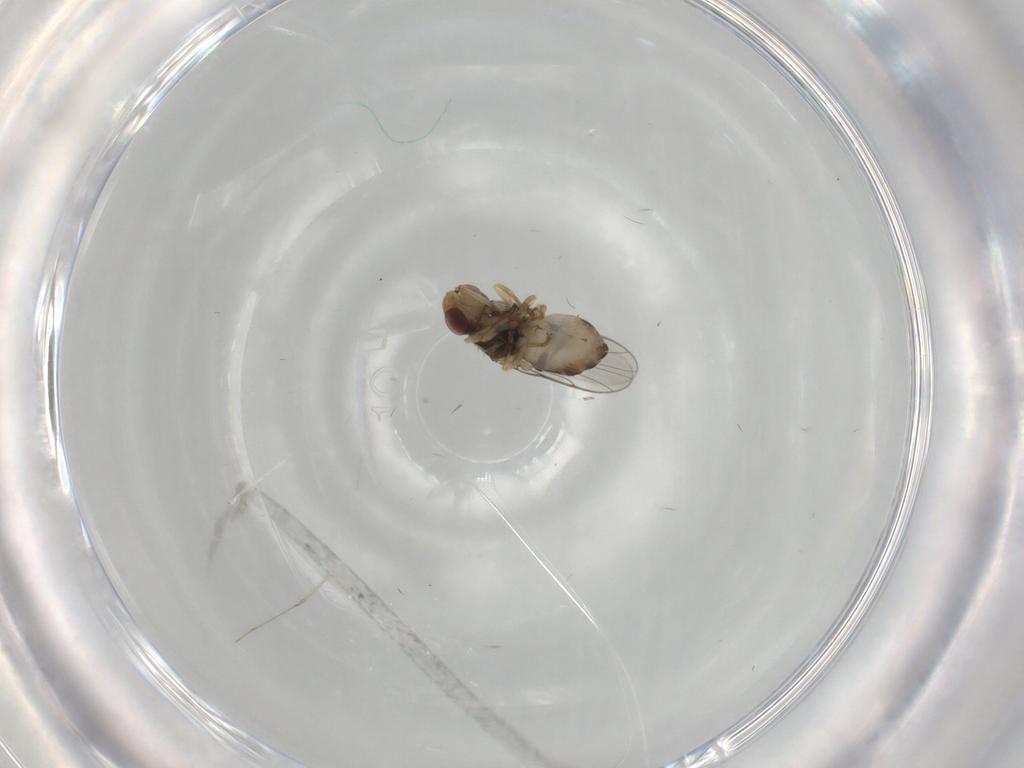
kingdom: Animalia
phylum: Arthropoda
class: Insecta
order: Diptera
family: Chloropidae
